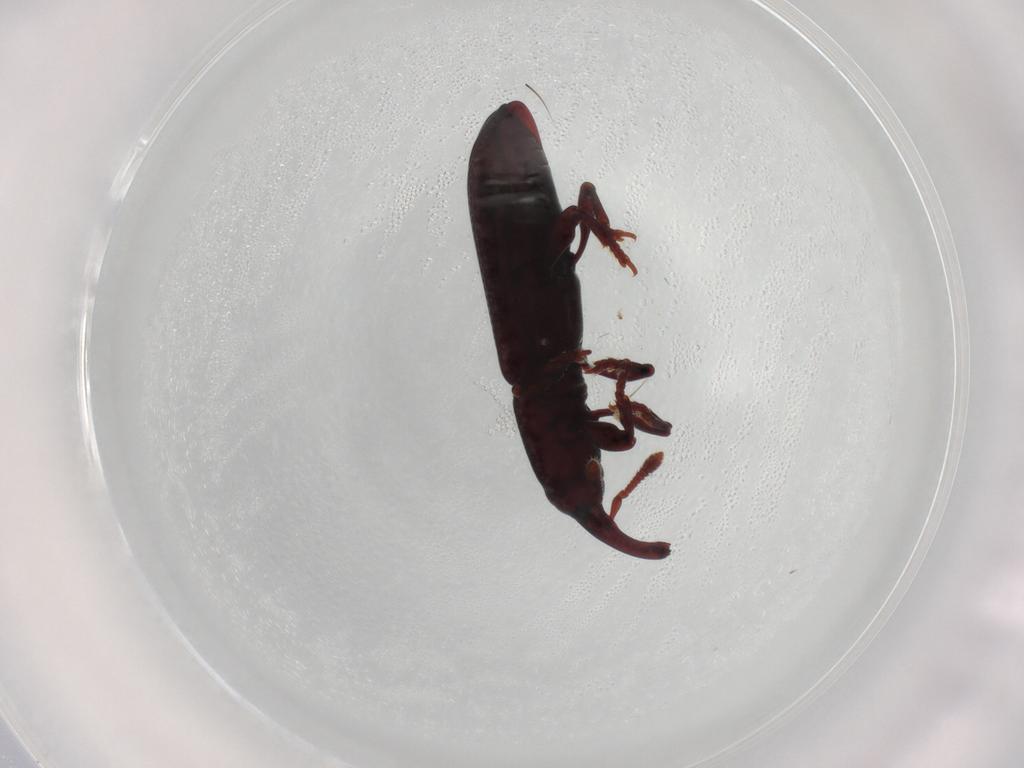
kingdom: Animalia
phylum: Arthropoda
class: Insecta
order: Coleoptera
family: Curculionidae
